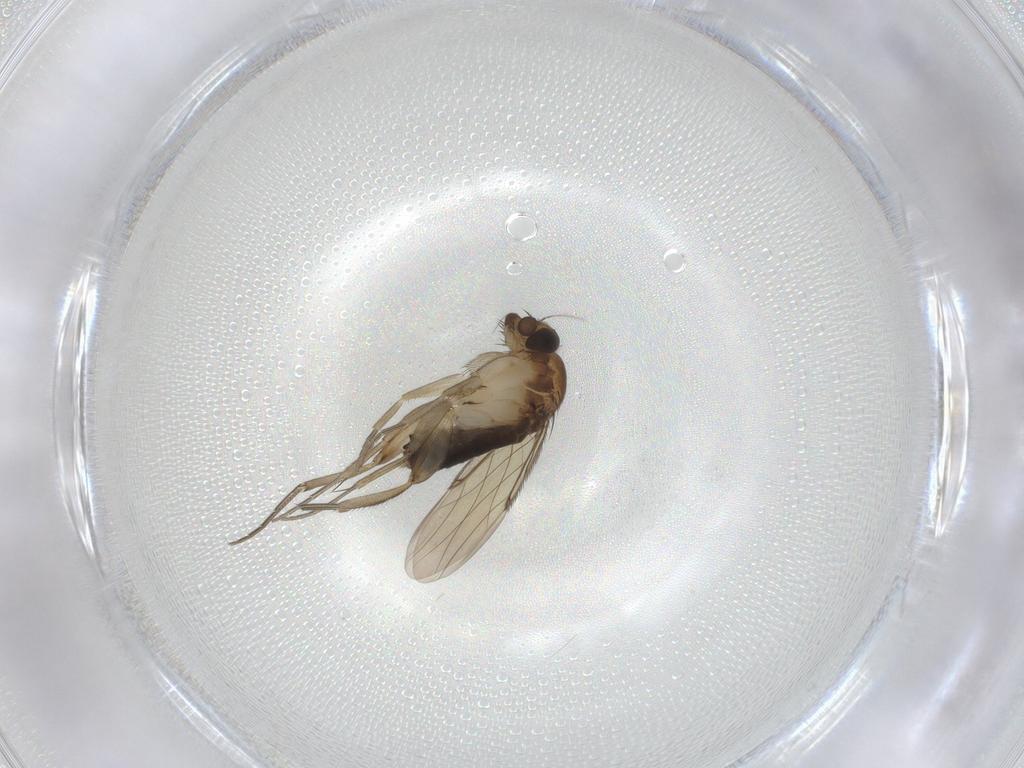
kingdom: Animalia
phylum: Arthropoda
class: Insecta
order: Diptera
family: Phoridae
